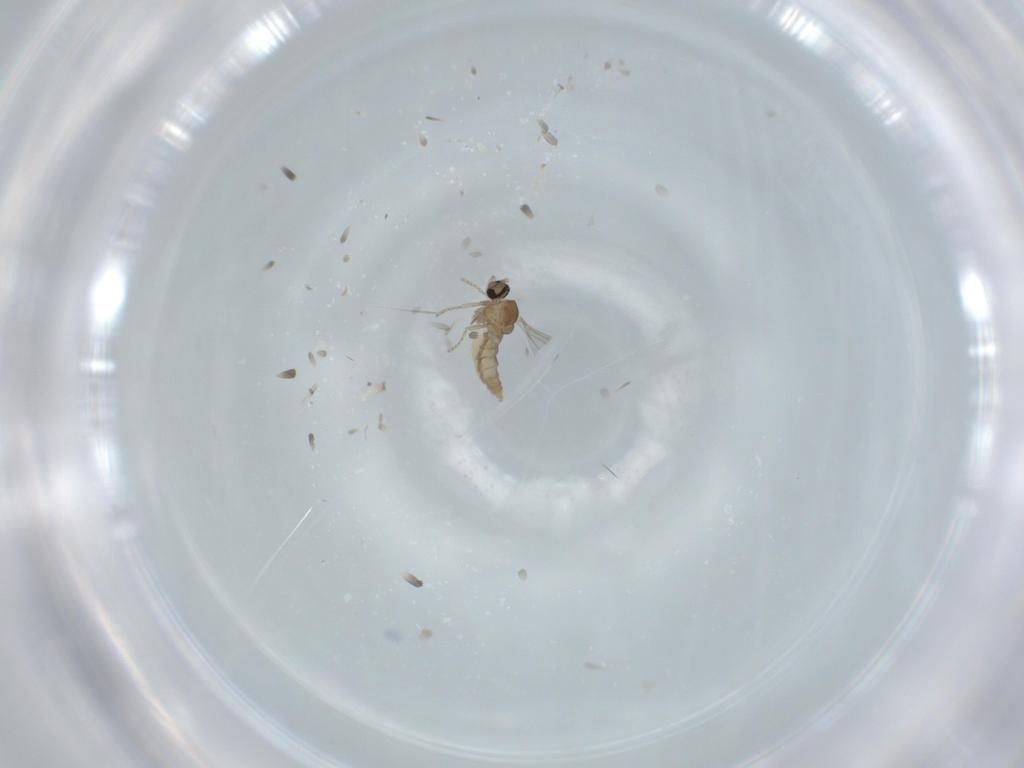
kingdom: Animalia
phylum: Arthropoda
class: Insecta
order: Diptera
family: Cecidomyiidae
